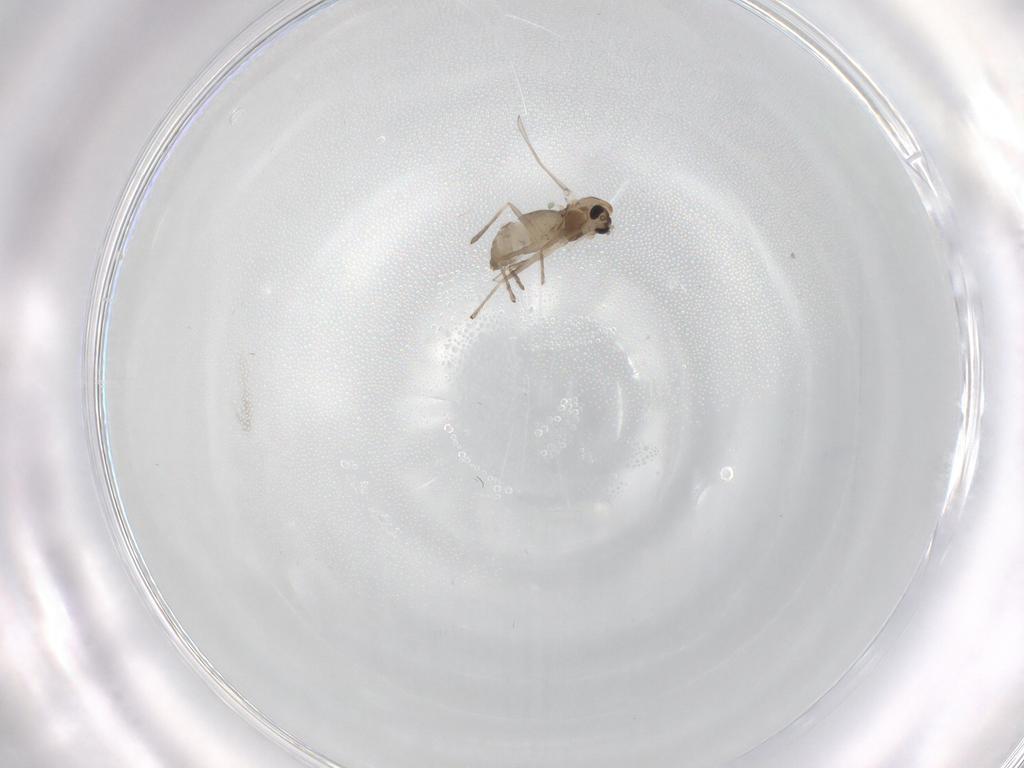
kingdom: Animalia
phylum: Arthropoda
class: Insecta
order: Diptera
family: Chironomidae
